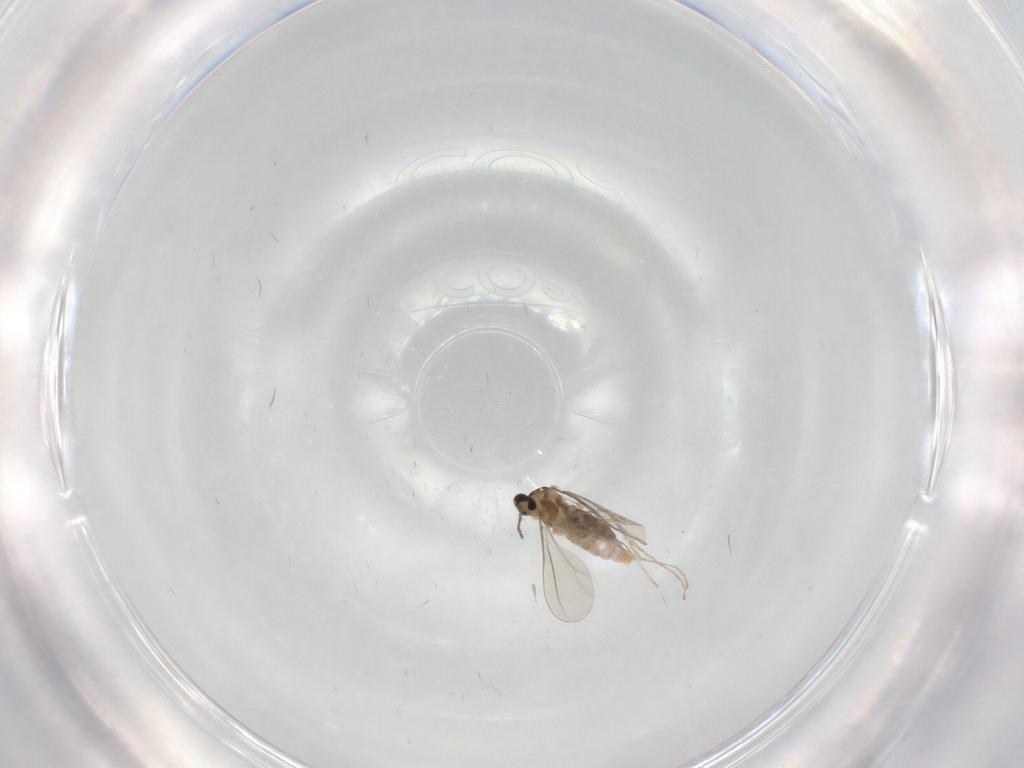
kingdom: Animalia
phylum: Arthropoda
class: Insecta
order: Diptera
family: Psychodidae
